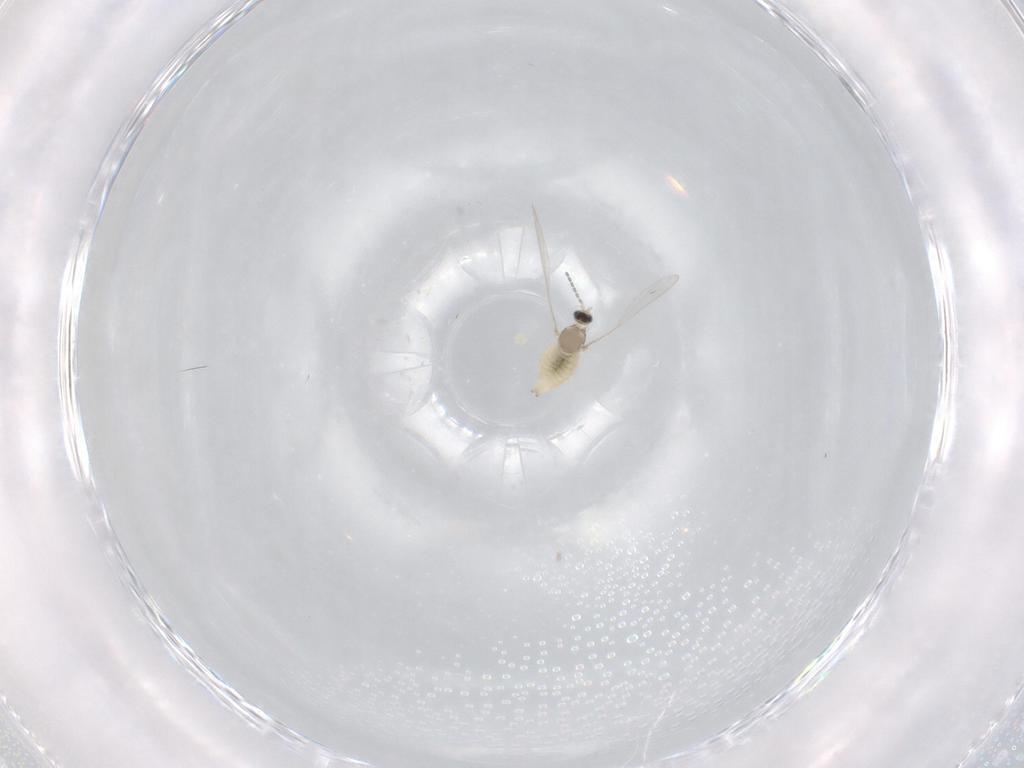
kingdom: Animalia
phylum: Arthropoda
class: Insecta
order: Diptera
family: Cecidomyiidae
